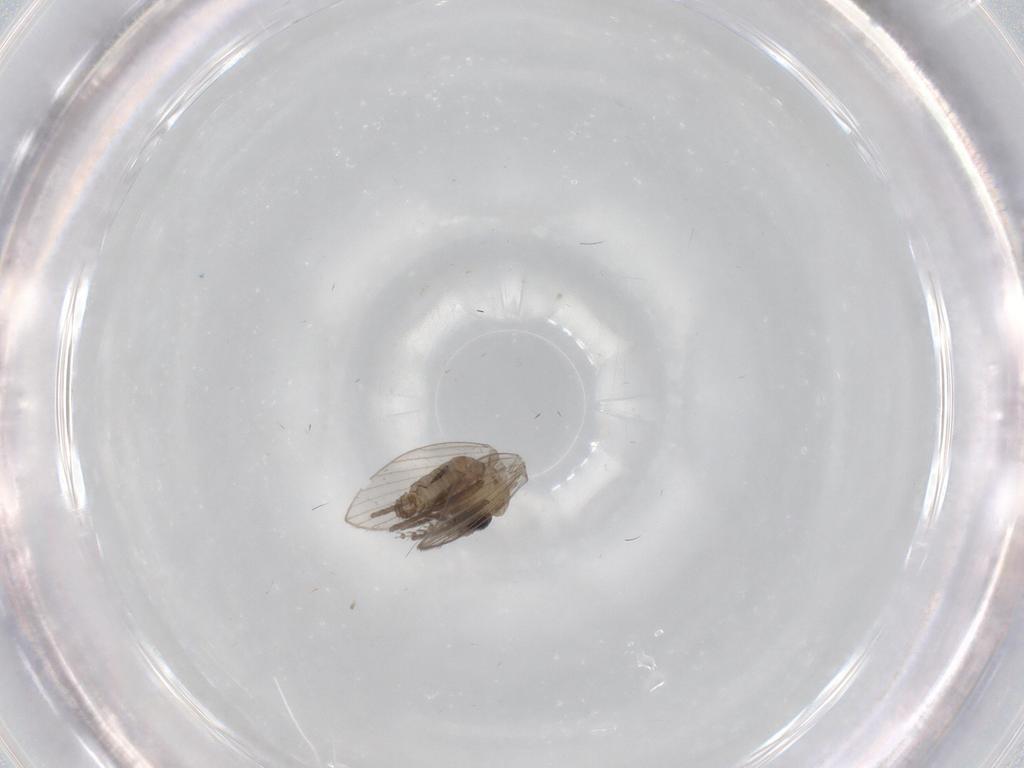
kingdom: Animalia
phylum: Arthropoda
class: Insecta
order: Diptera
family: Psychodidae
